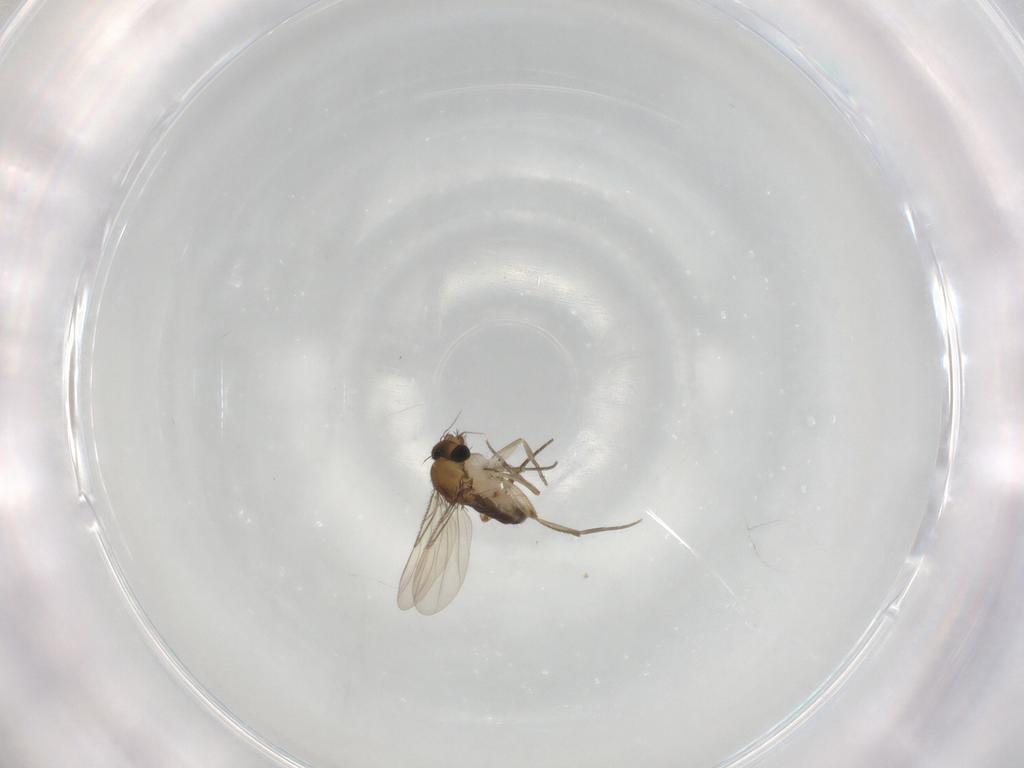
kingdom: Animalia
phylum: Arthropoda
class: Insecta
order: Diptera
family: Phoridae
